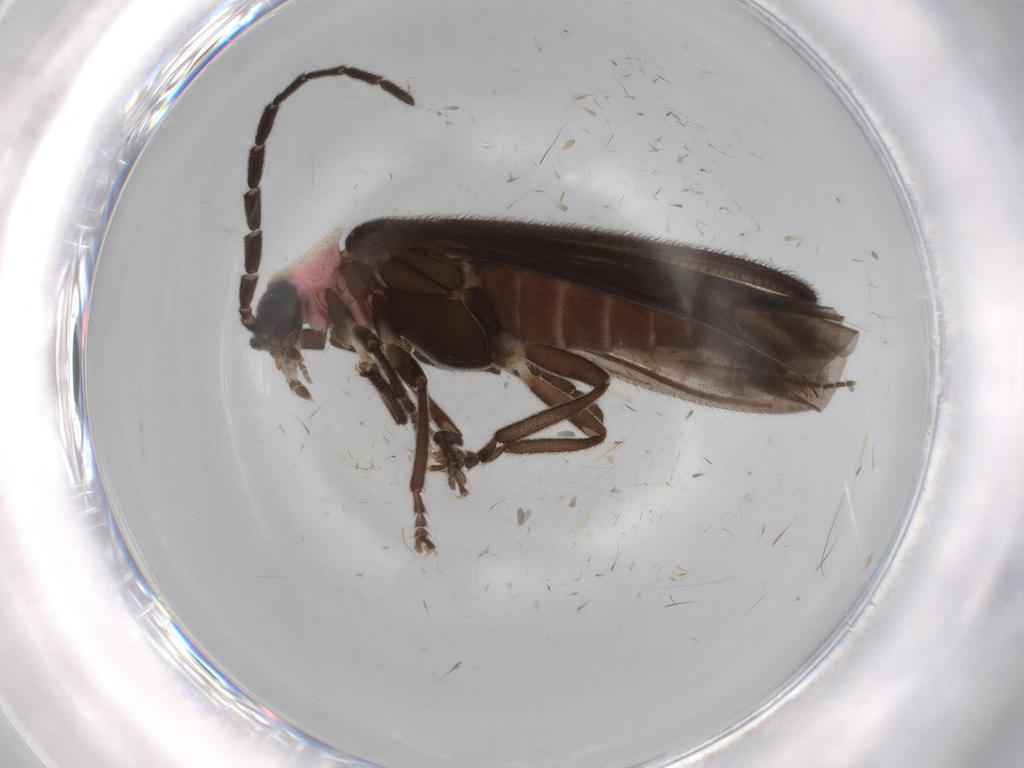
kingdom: Animalia
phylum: Arthropoda
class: Insecta
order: Coleoptera
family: Lampyridae
